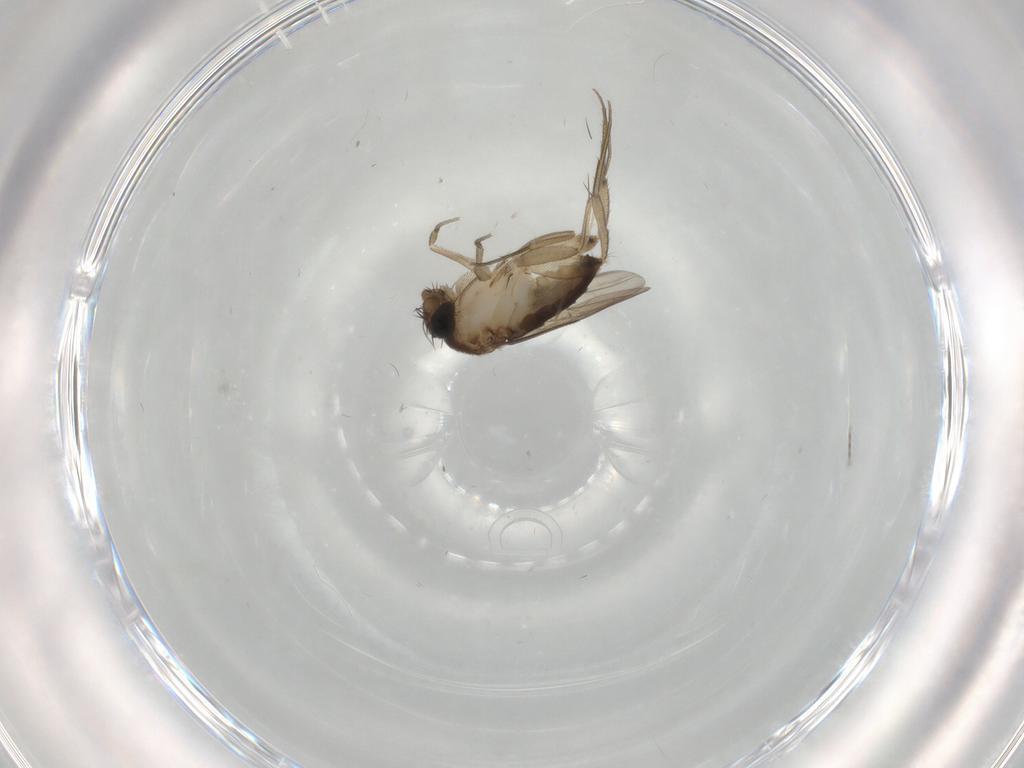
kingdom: Animalia
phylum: Arthropoda
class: Insecta
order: Diptera
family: Phoridae
